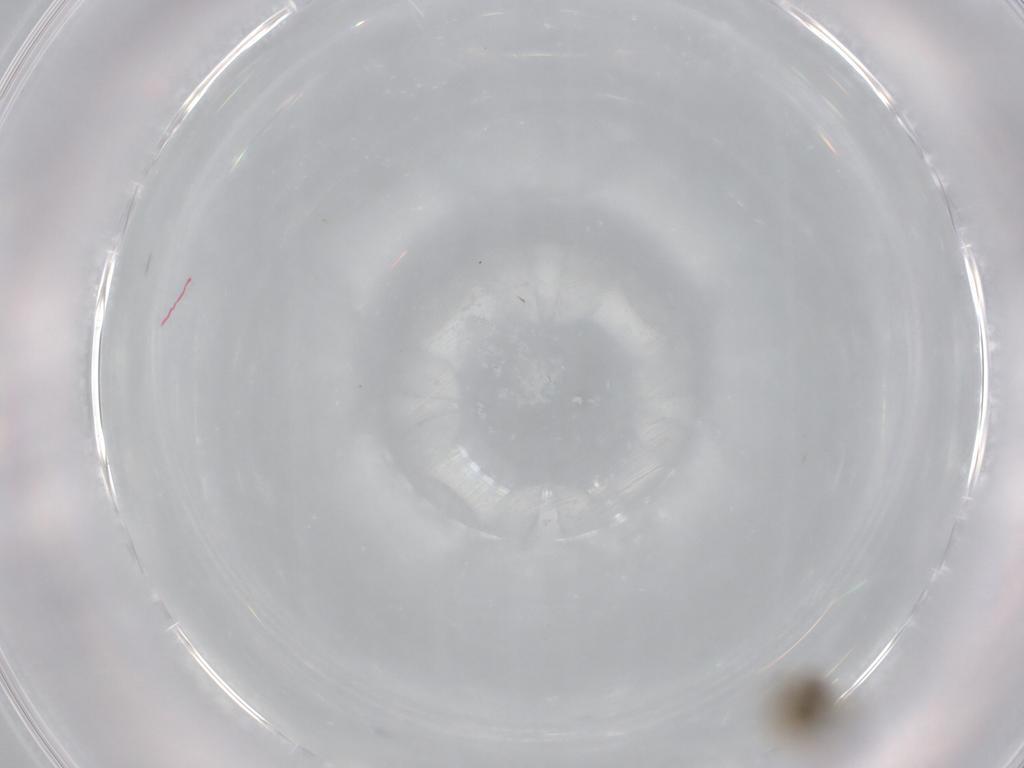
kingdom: Animalia
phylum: Arthropoda
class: Insecta
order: Diptera
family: Chironomidae
